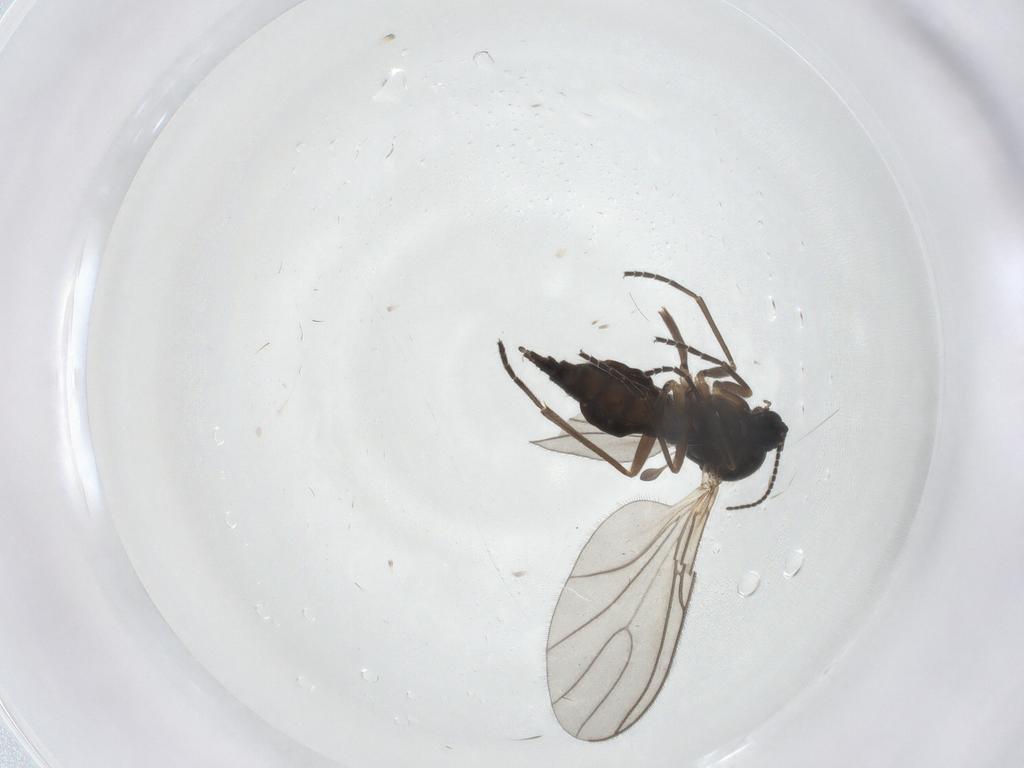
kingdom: Animalia
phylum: Arthropoda
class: Insecta
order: Diptera
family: Sciaridae
